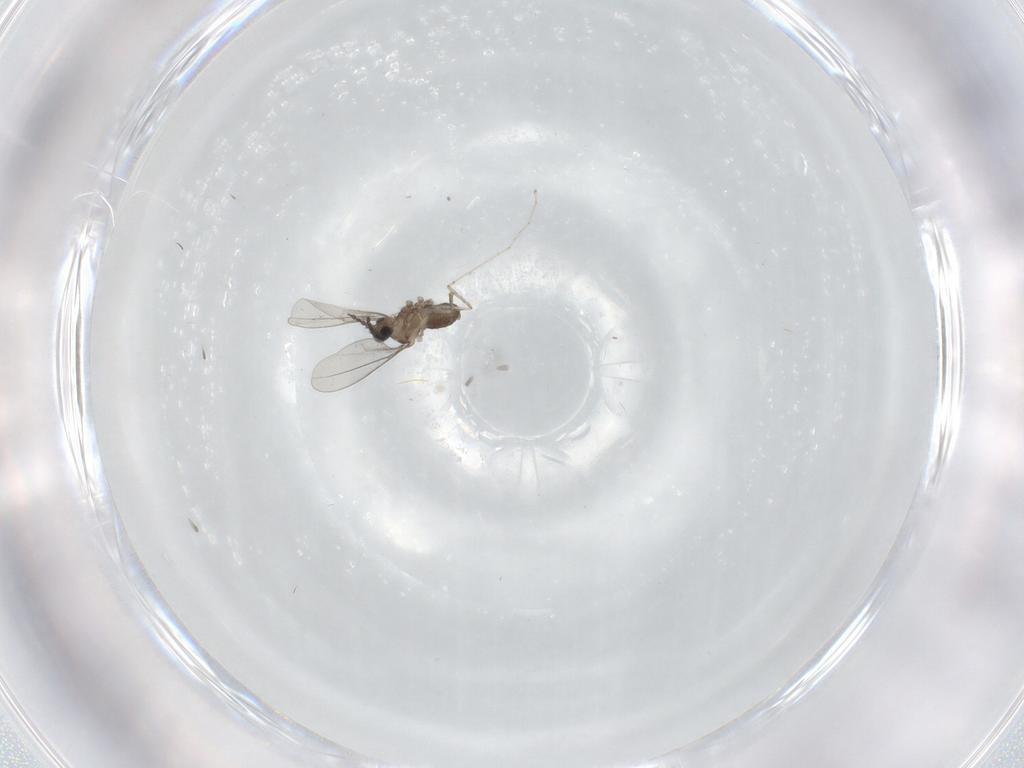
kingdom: Animalia
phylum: Arthropoda
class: Insecta
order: Diptera
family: Cecidomyiidae
